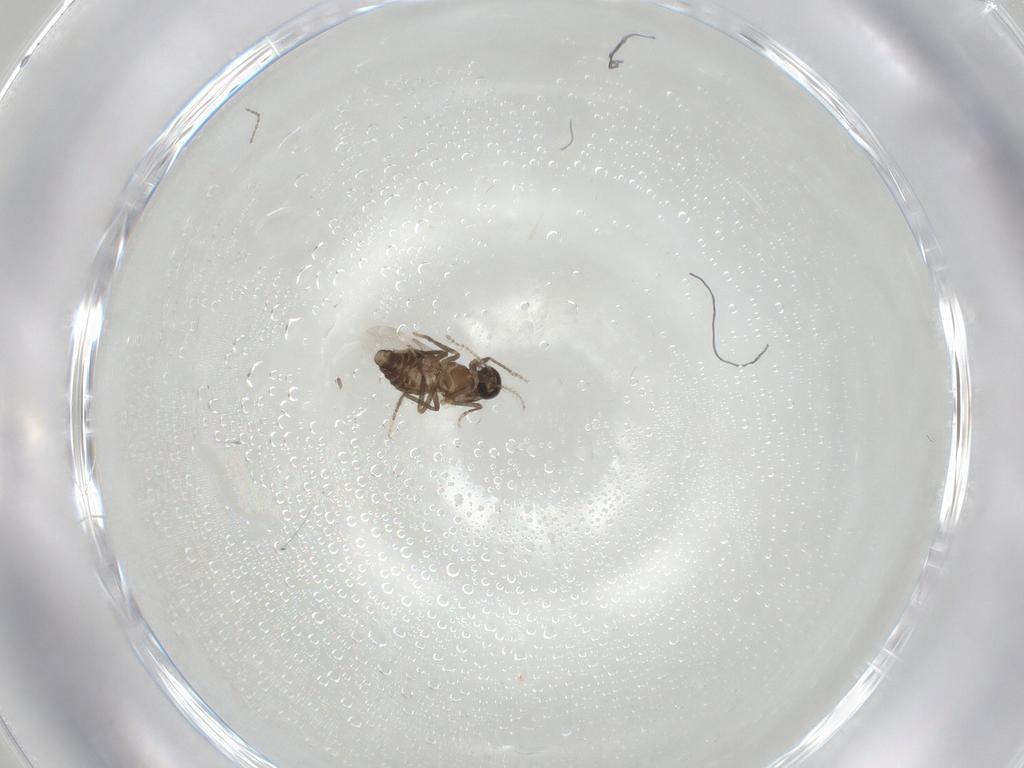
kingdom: Animalia
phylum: Arthropoda
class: Insecta
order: Diptera
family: Ceratopogonidae
